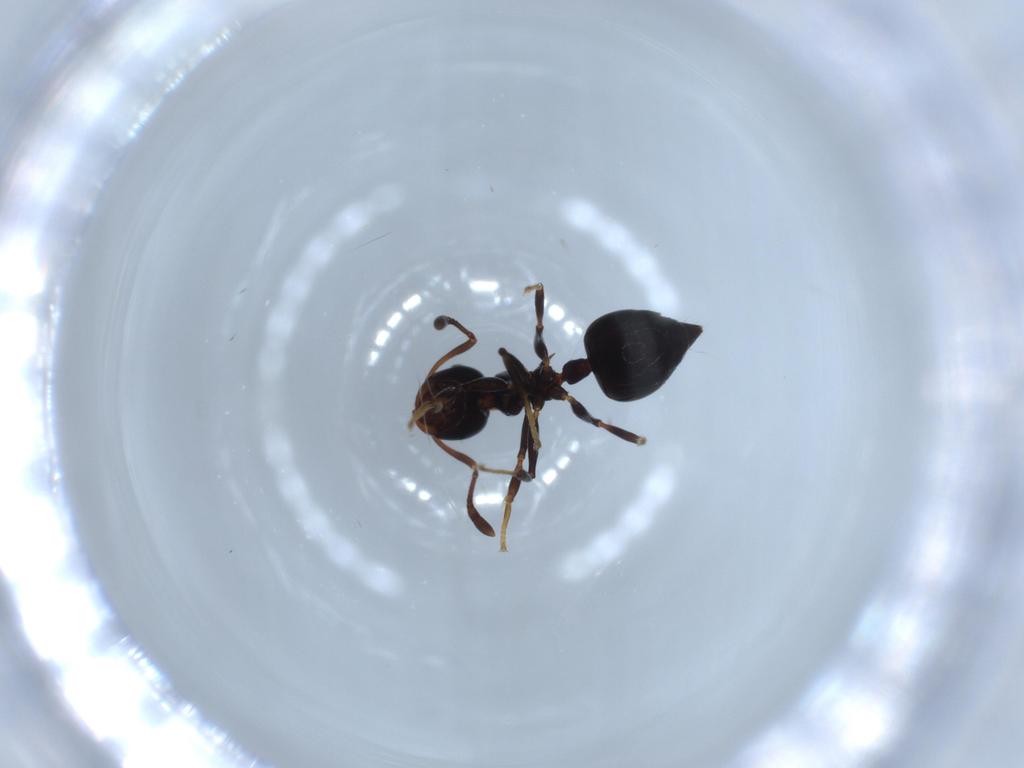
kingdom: Animalia
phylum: Arthropoda
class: Insecta
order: Hymenoptera
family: Formicidae
